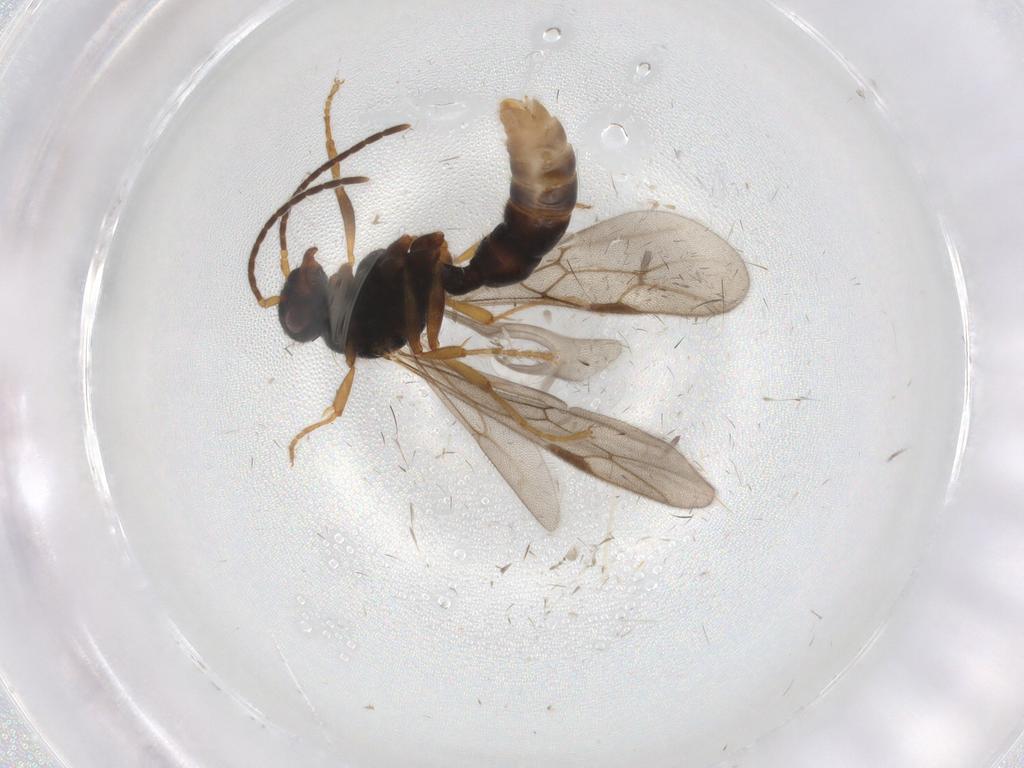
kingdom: Animalia
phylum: Arthropoda
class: Insecta
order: Hymenoptera
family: Formicidae
